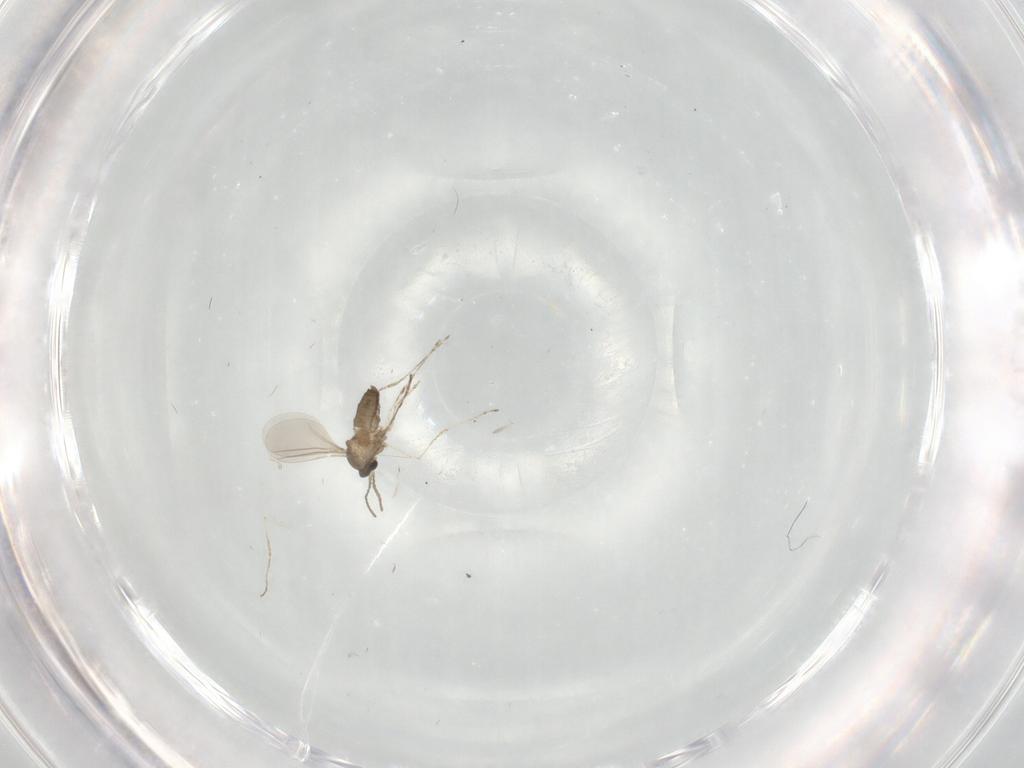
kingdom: Animalia
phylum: Arthropoda
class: Insecta
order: Diptera
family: Cecidomyiidae
